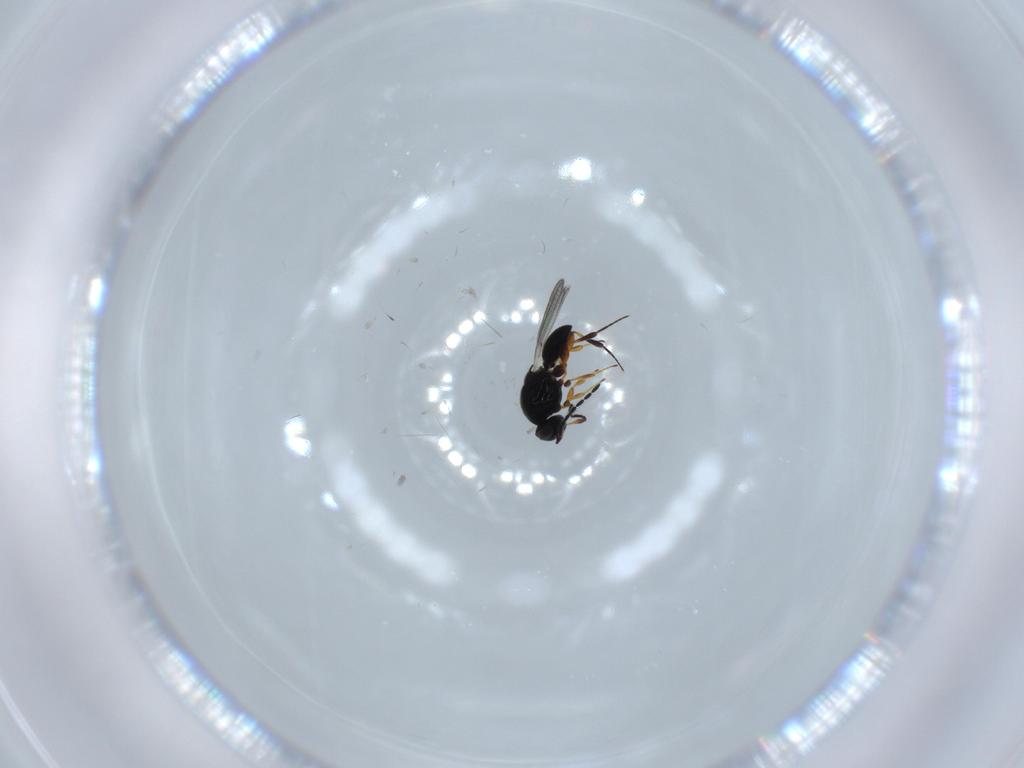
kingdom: Animalia
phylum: Arthropoda
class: Insecta
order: Hymenoptera
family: Platygastridae
